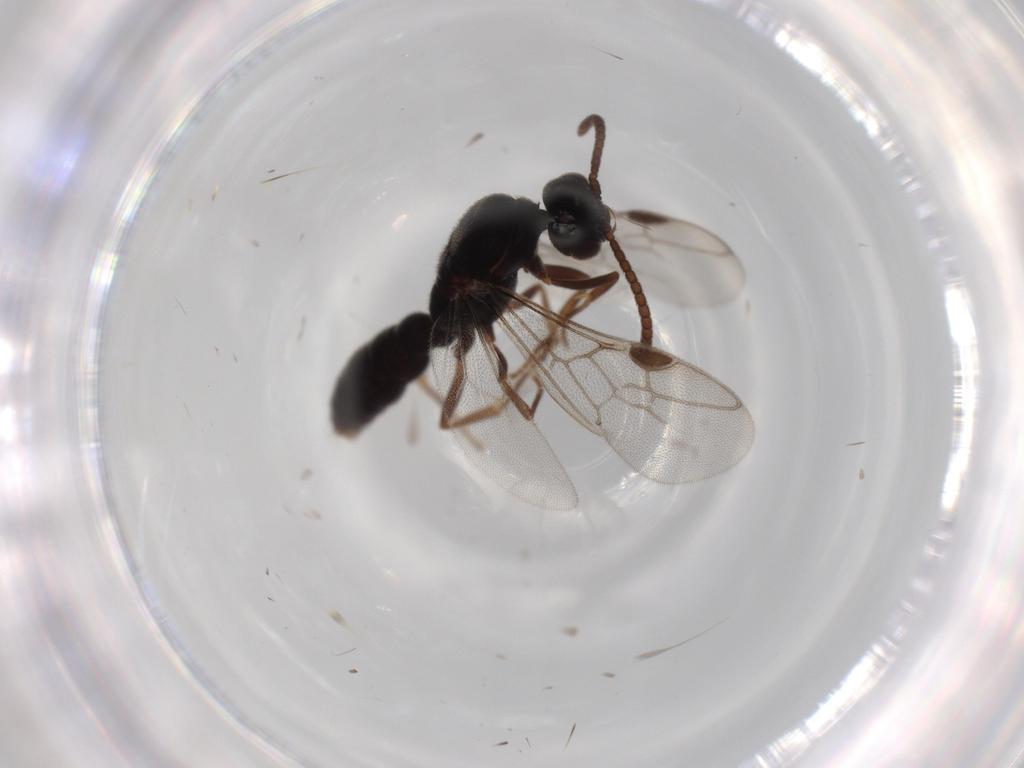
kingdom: Animalia
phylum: Arthropoda
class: Insecta
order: Hymenoptera
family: Formicidae
